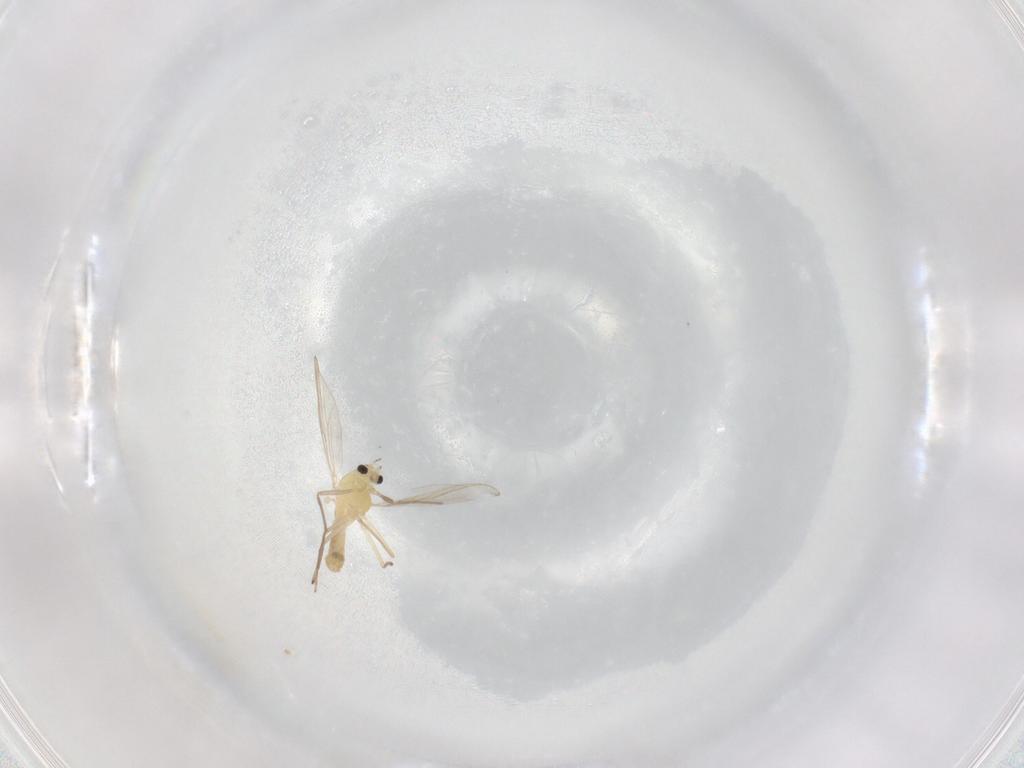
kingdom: Animalia
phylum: Arthropoda
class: Insecta
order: Diptera
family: Chironomidae
